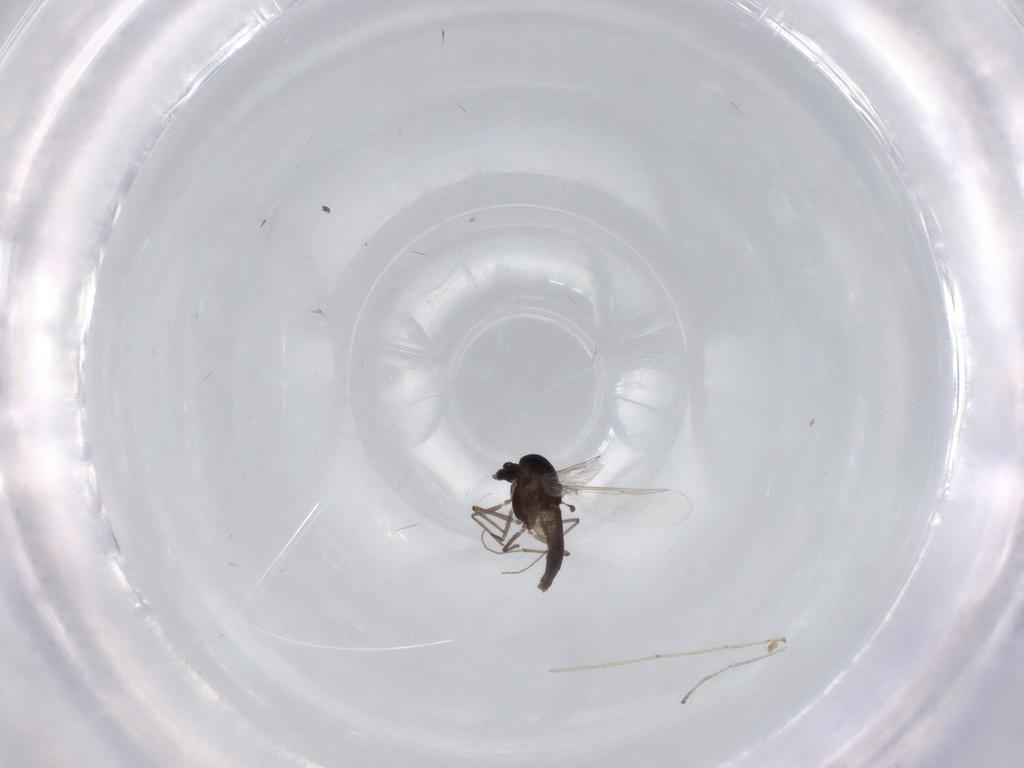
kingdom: Animalia
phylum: Arthropoda
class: Insecta
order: Diptera
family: Chironomidae
